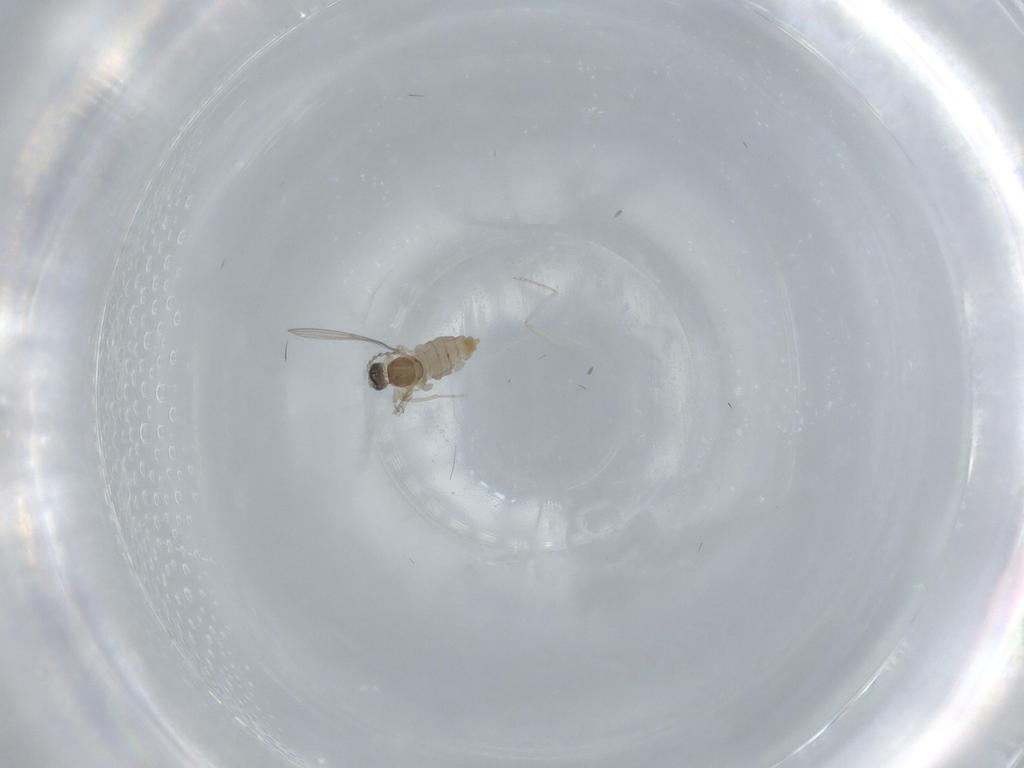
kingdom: Animalia
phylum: Arthropoda
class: Insecta
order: Diptera
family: Cecidomyiidae
